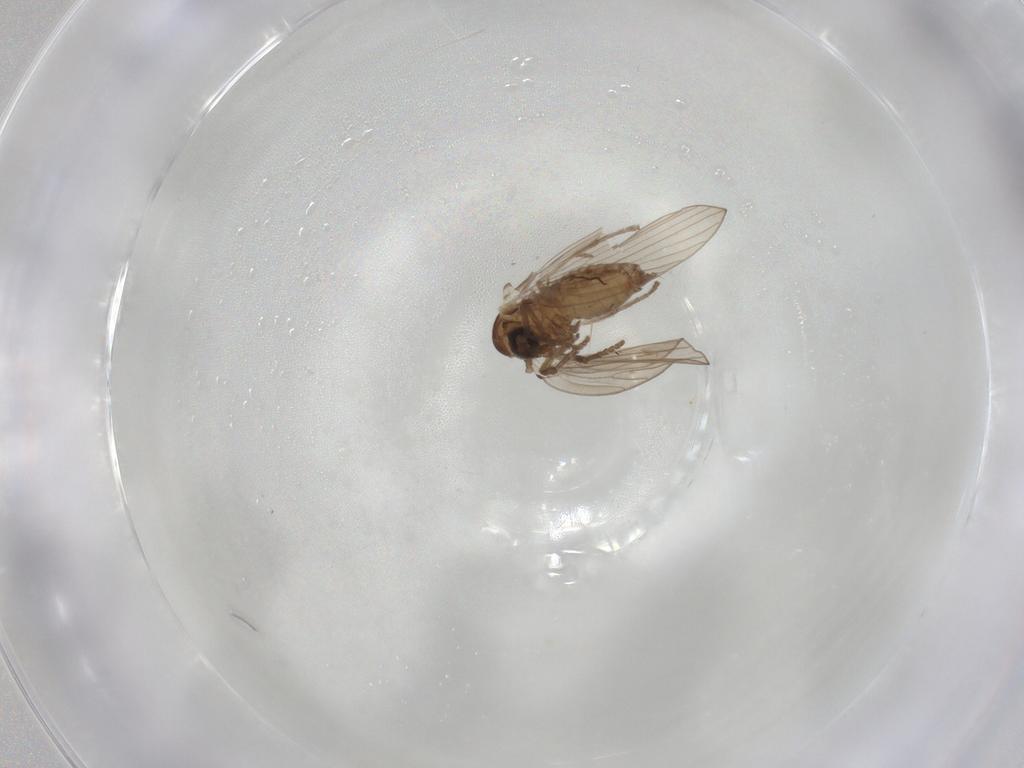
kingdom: Animalia
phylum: Arthropoda
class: Insecta
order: Diptera
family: Psychodidae
